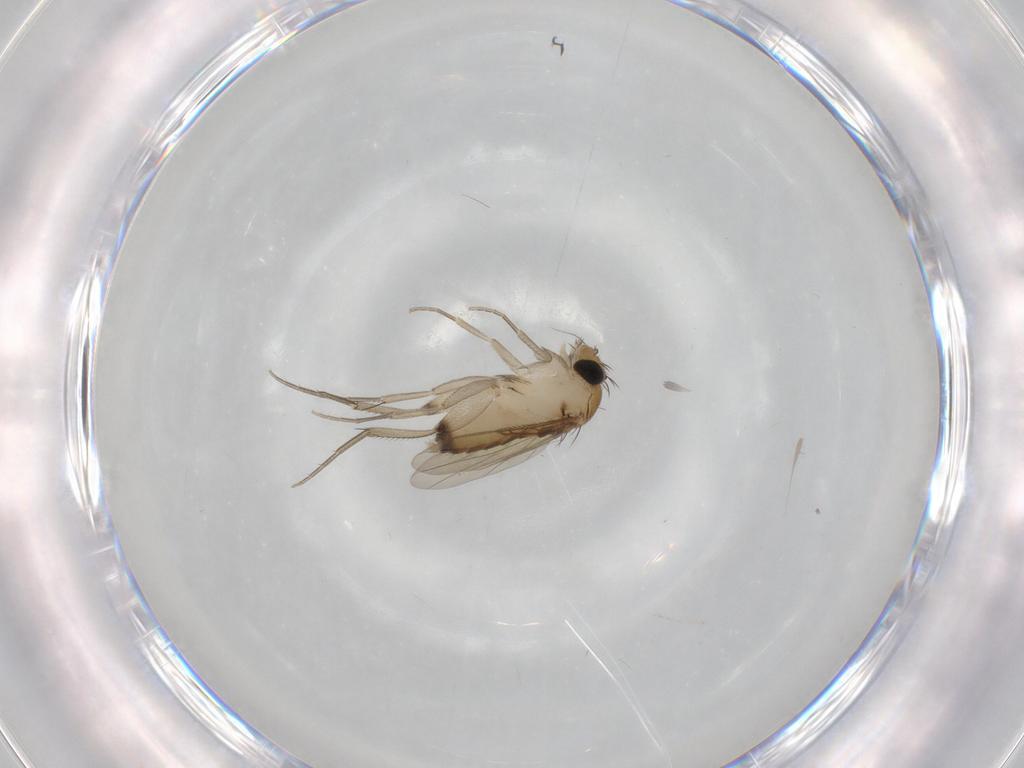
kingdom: Animalia
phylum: Arthropoda
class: Insecta
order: Diptera
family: Phoridae
